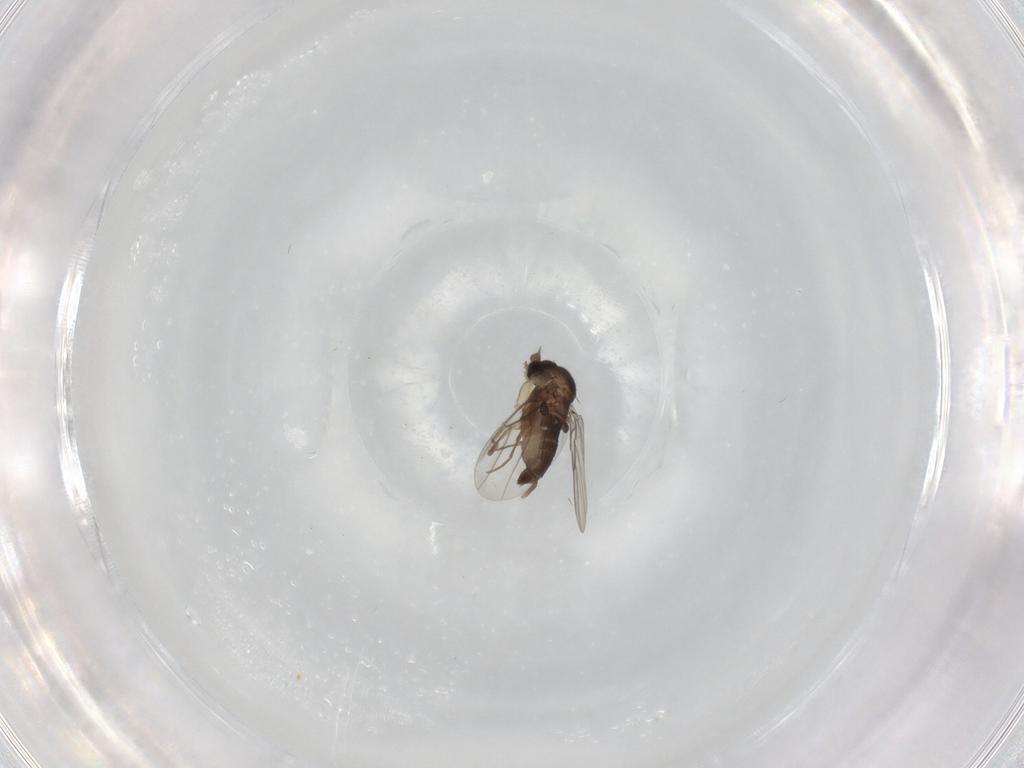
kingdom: Animalia
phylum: Arthropoda
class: Insecta
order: Diptera
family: Phoridae
